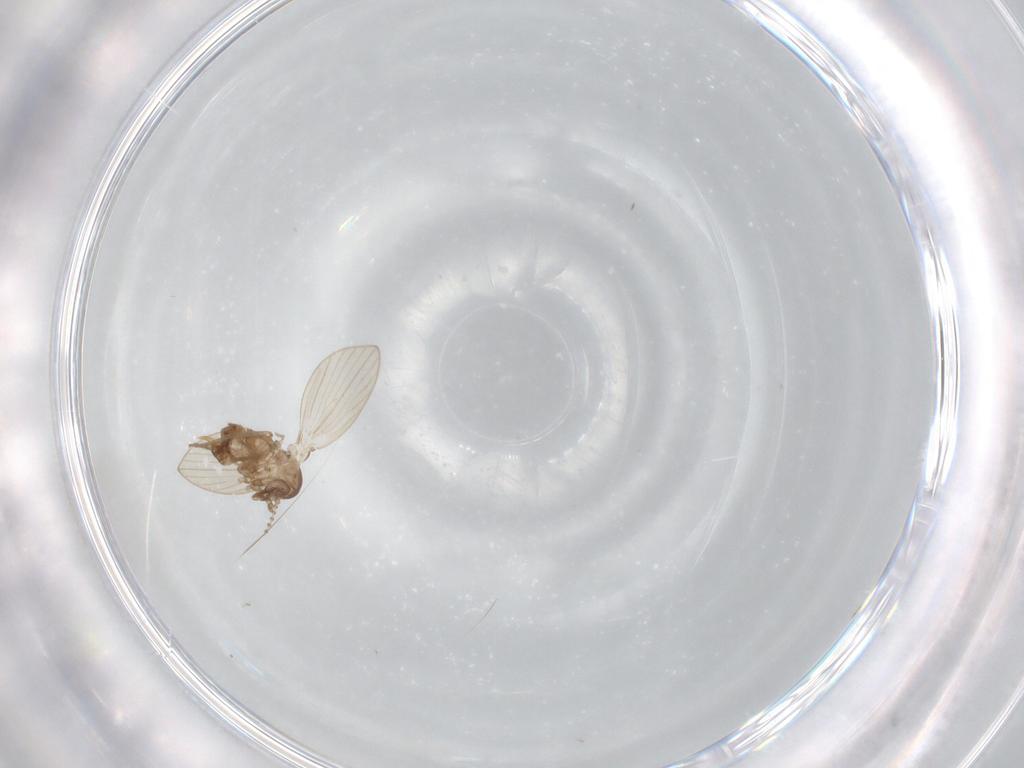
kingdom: Animalia
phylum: Arthropoda
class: Insecta
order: Diptera
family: Psychodidae
